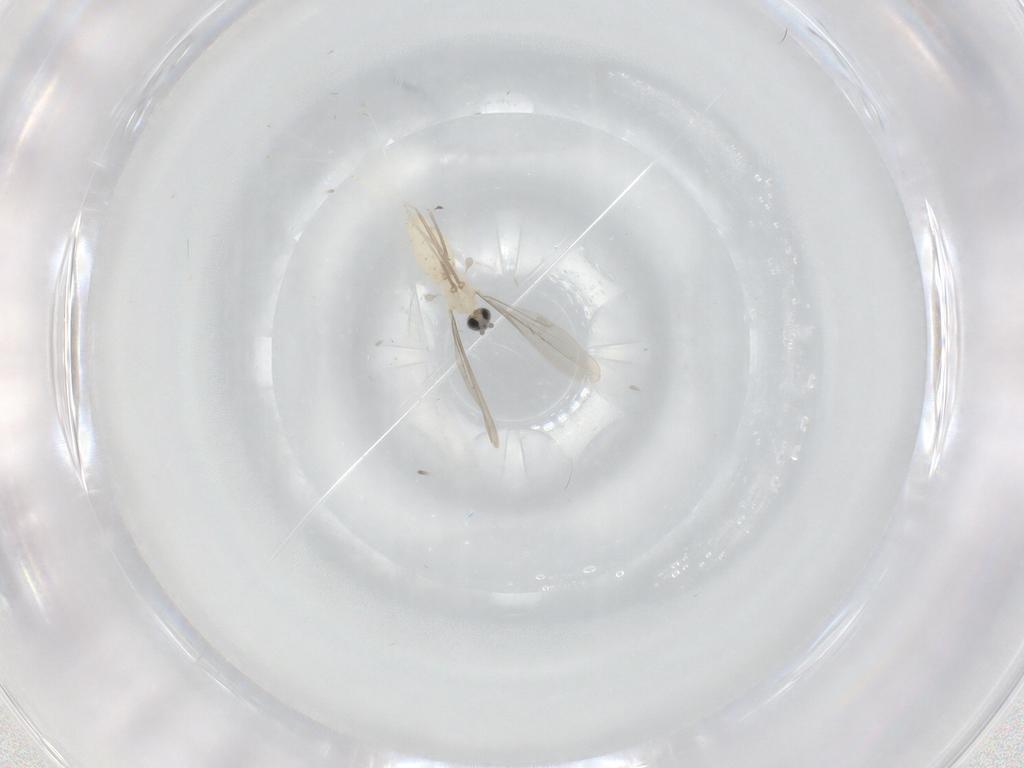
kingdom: Animalia
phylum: Arthropoda
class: Insecta
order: Diptera
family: Cecidomyiidae
